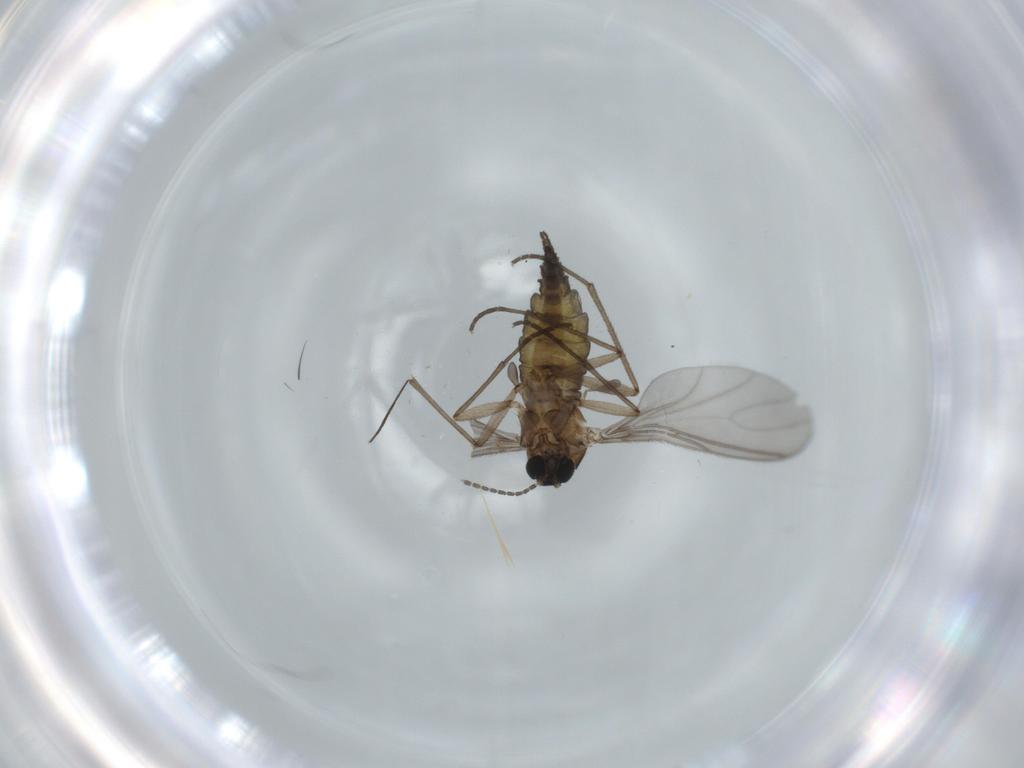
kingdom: Animalia
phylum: Arthropoda
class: Insecta
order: Diptera
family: Sciaridae
